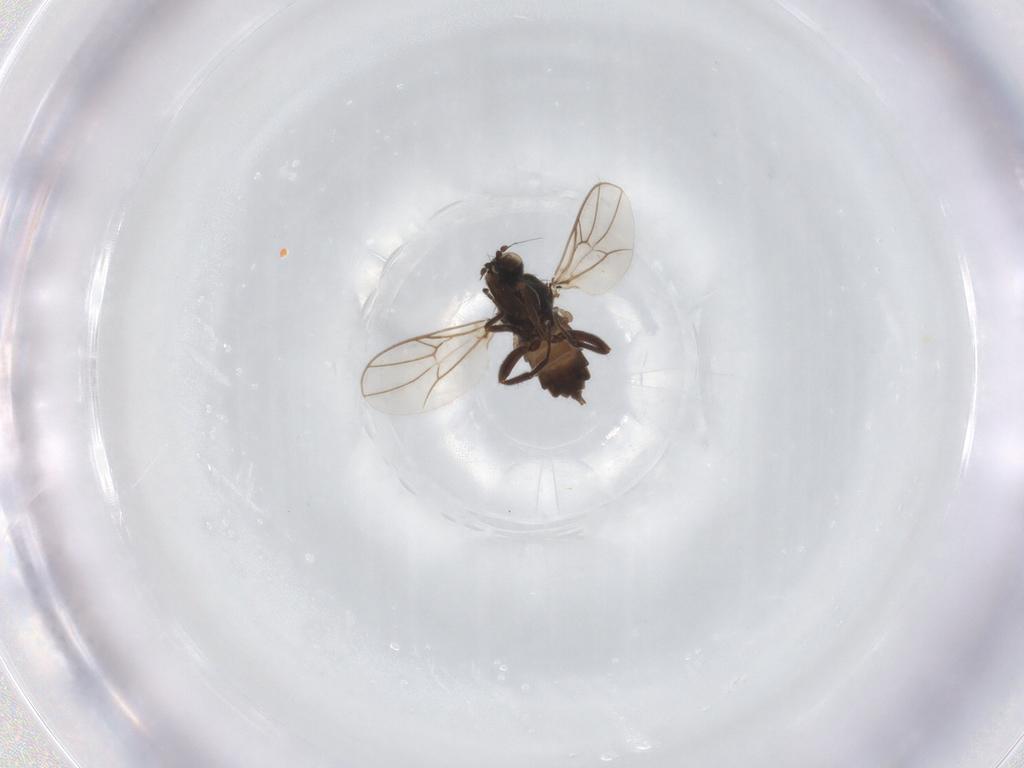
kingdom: Animalia
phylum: Arthropoda
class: Insecta
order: Diptera
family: Hybotidae
